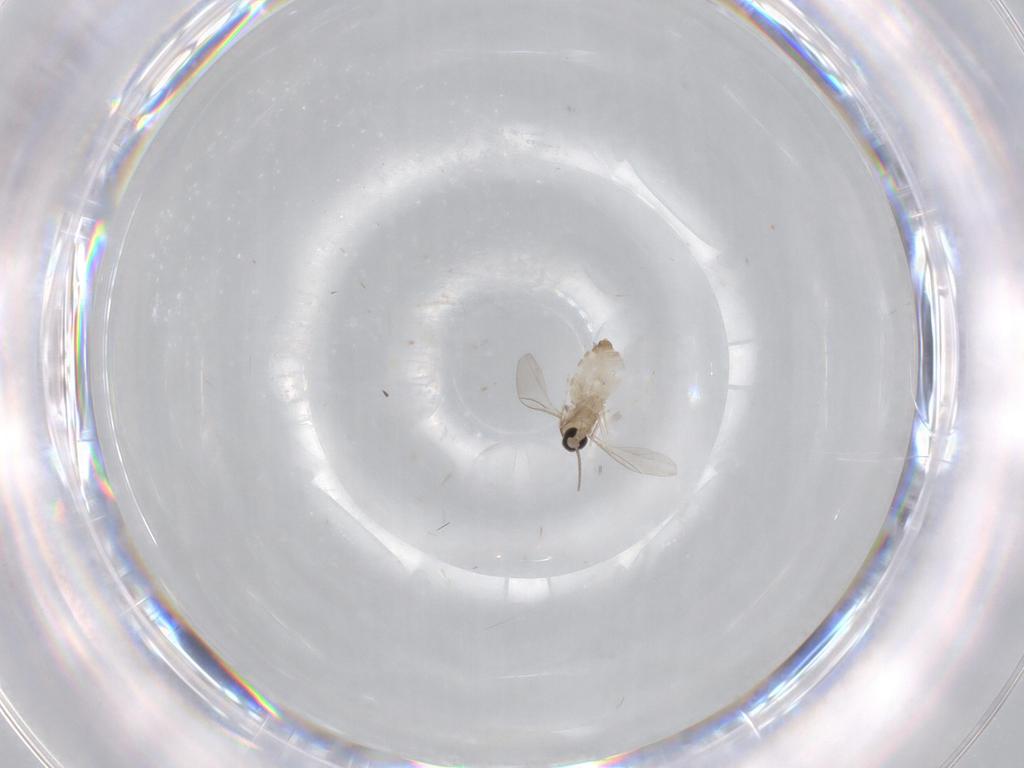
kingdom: Animalia
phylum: Arthropoda
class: Insecta
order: Diptera
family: Cecidomyiidae
